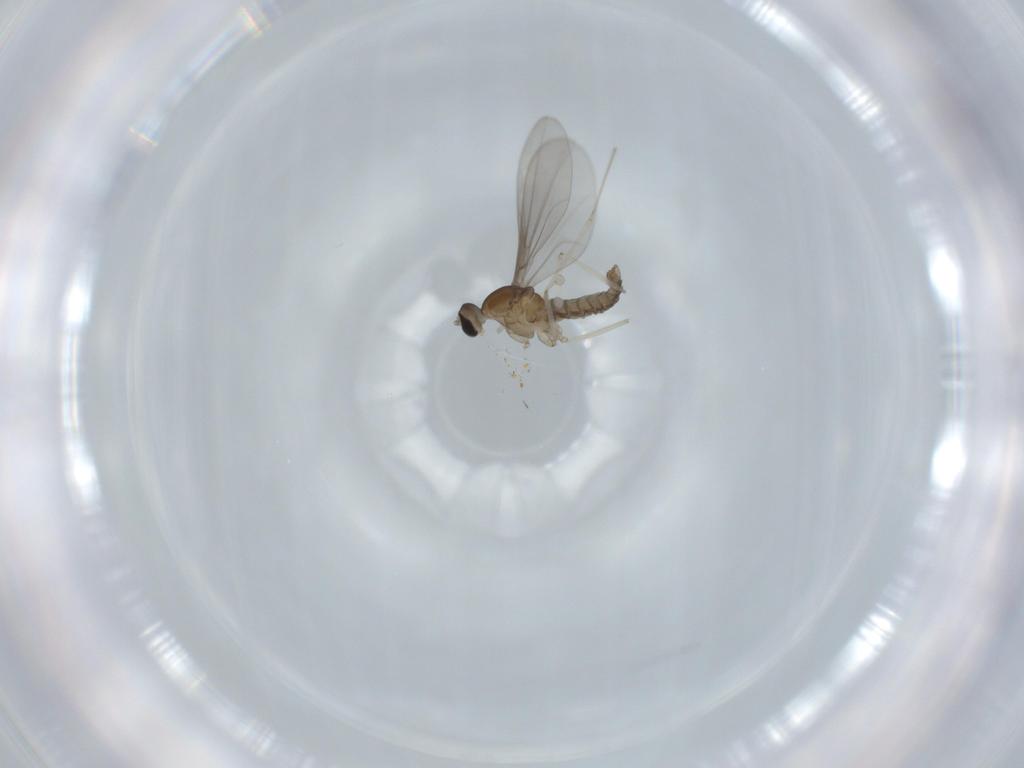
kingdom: Animalia
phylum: Arthropoda
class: Insecta
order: Diptera
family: Cecidomyiidae
